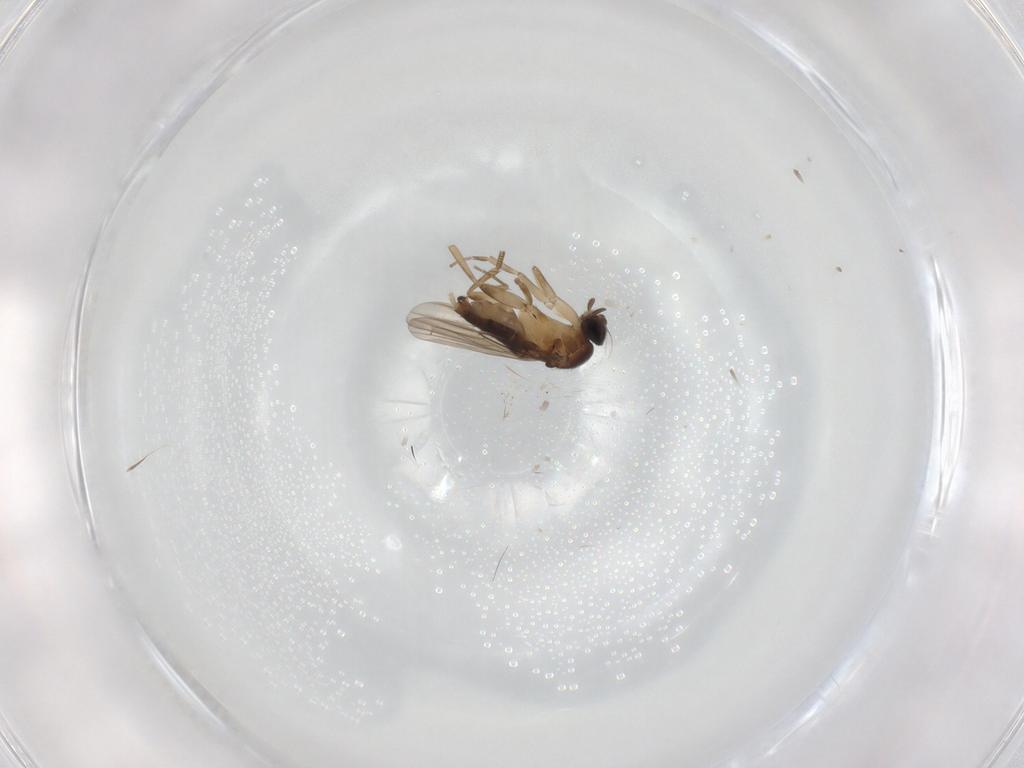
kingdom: Animalia
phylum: Arthropoda
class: Insecta
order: Diptera
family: Phoridae
